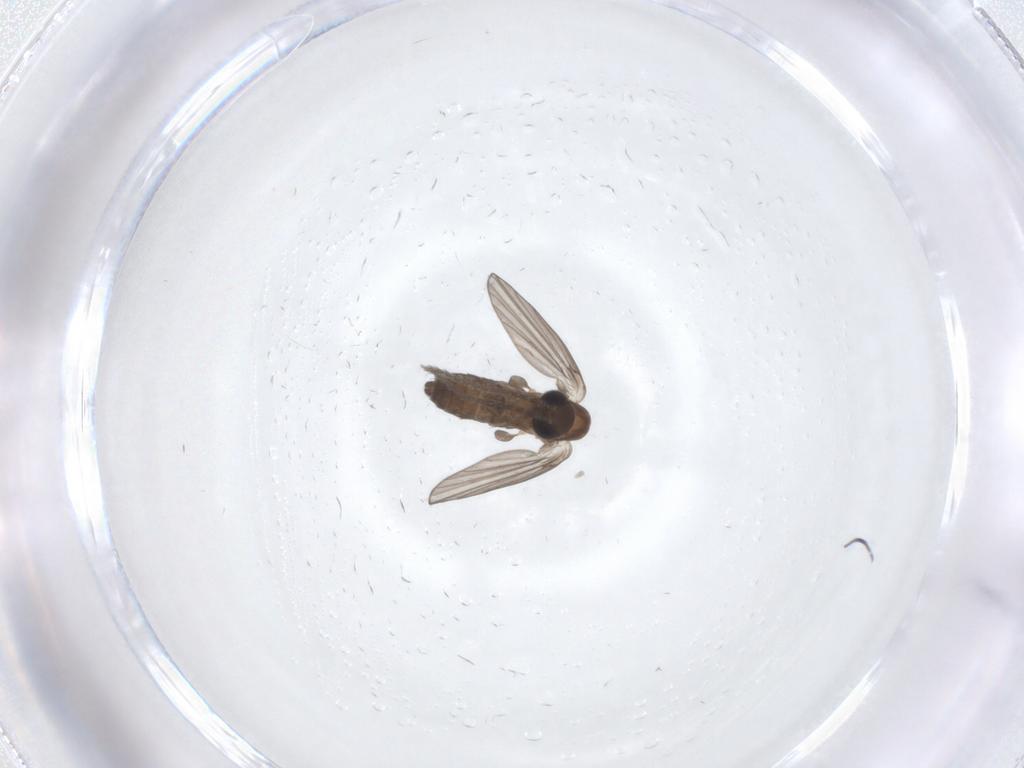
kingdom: Animalia
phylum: Arthropoda
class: Insecta
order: Diptera
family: Psychodidae
